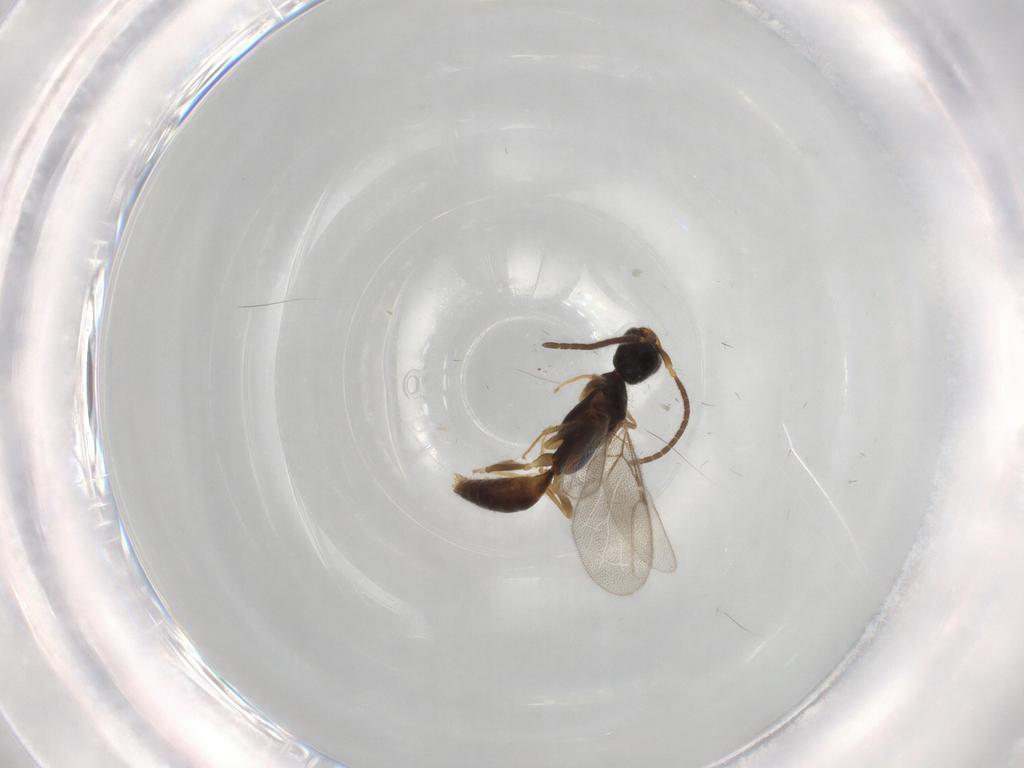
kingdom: Animalia
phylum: Arthropoda
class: Insecta
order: Hymenoptera
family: Bethylidae
